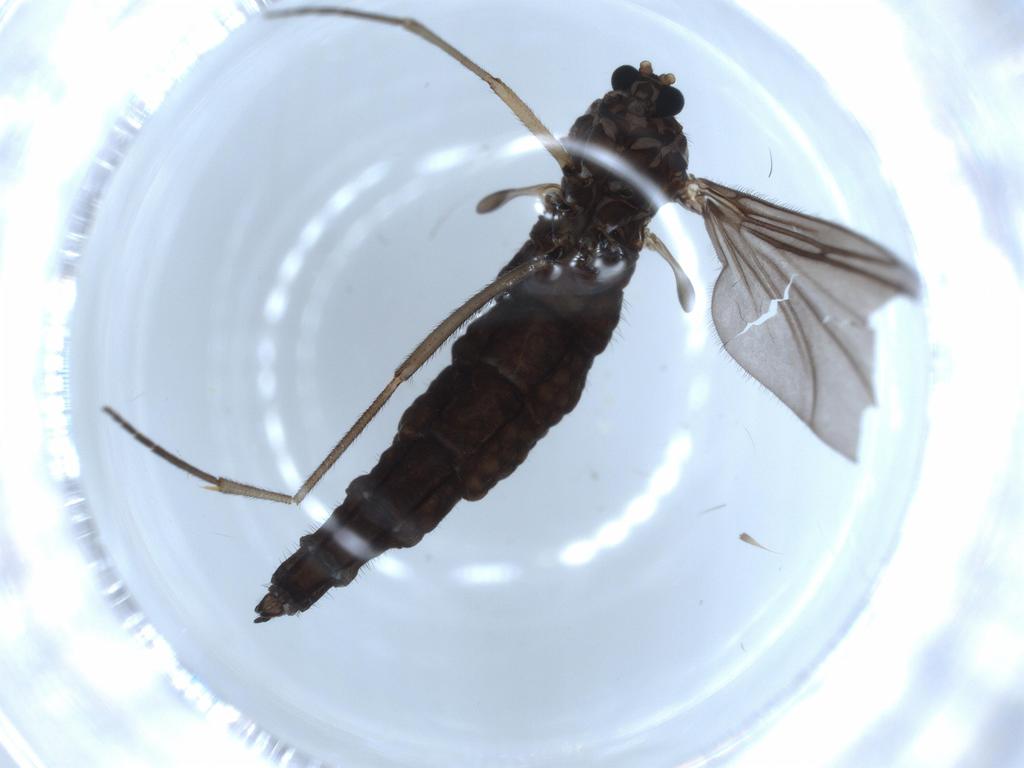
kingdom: Animalia
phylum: Arthropoda
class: Insecta
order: Diptera
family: Sciaridae
